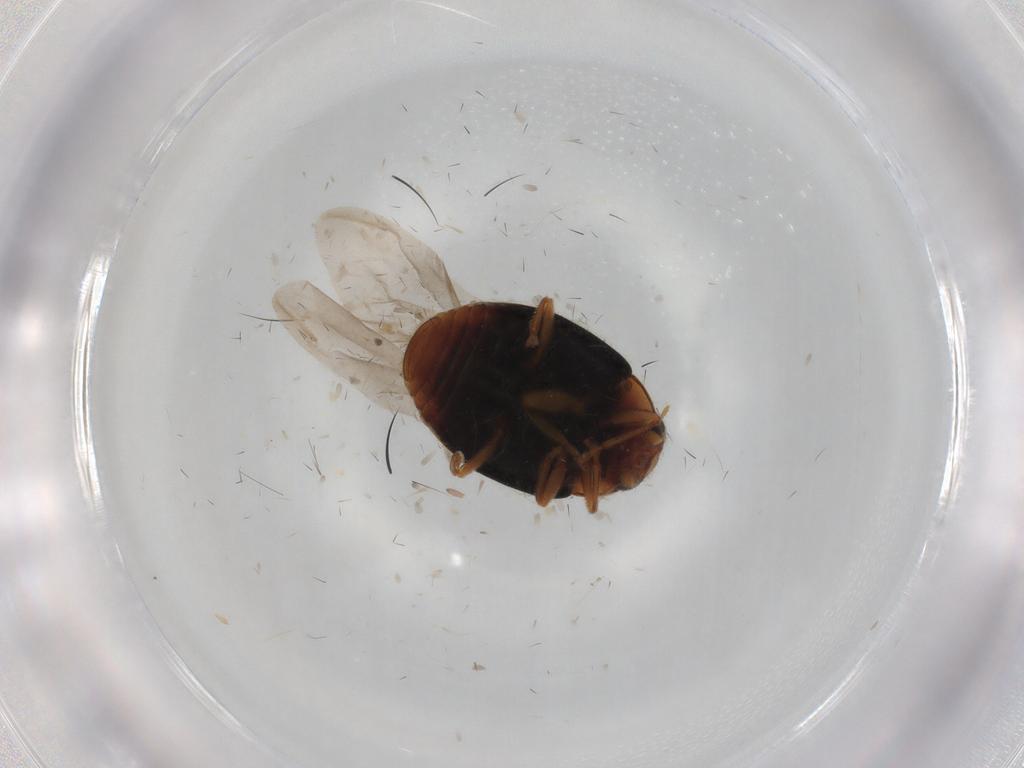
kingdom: Animalia
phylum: Arthropoda
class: Insecta
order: Coleoptera
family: Coccinellidae
